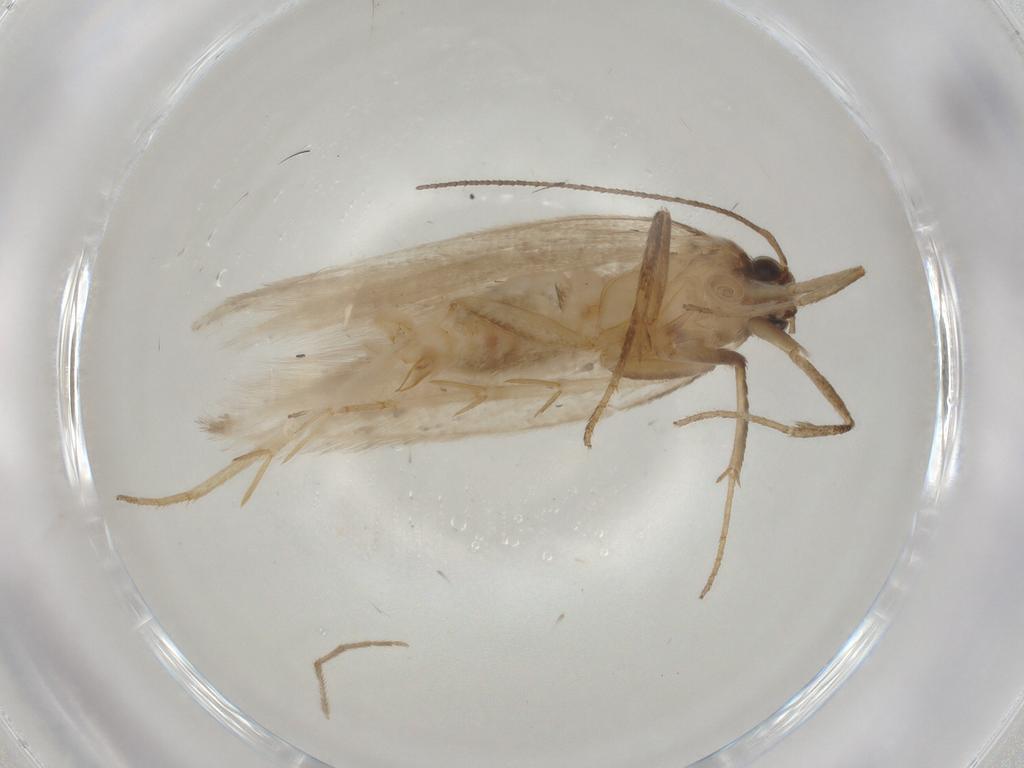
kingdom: Animalia
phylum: Arthropoda
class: Insecta
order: Lepidoptera
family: Gelechiidae
